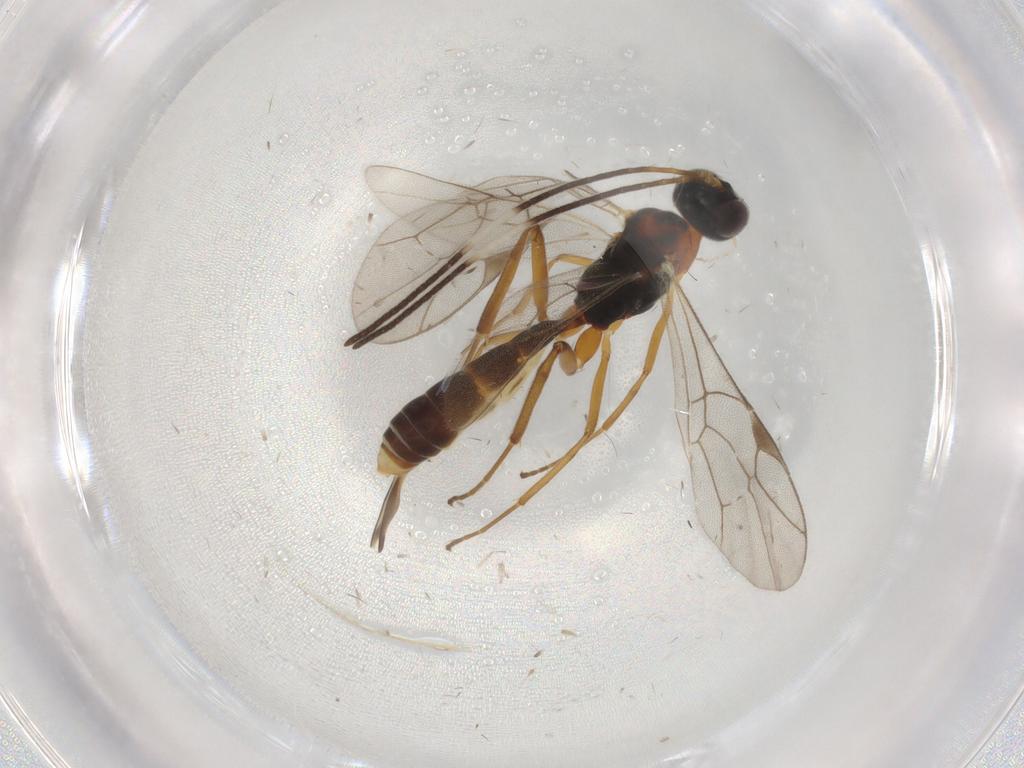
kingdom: Animalia
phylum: Arthropoda
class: Insecta
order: Hymenoptera
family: Ichneumonidae
